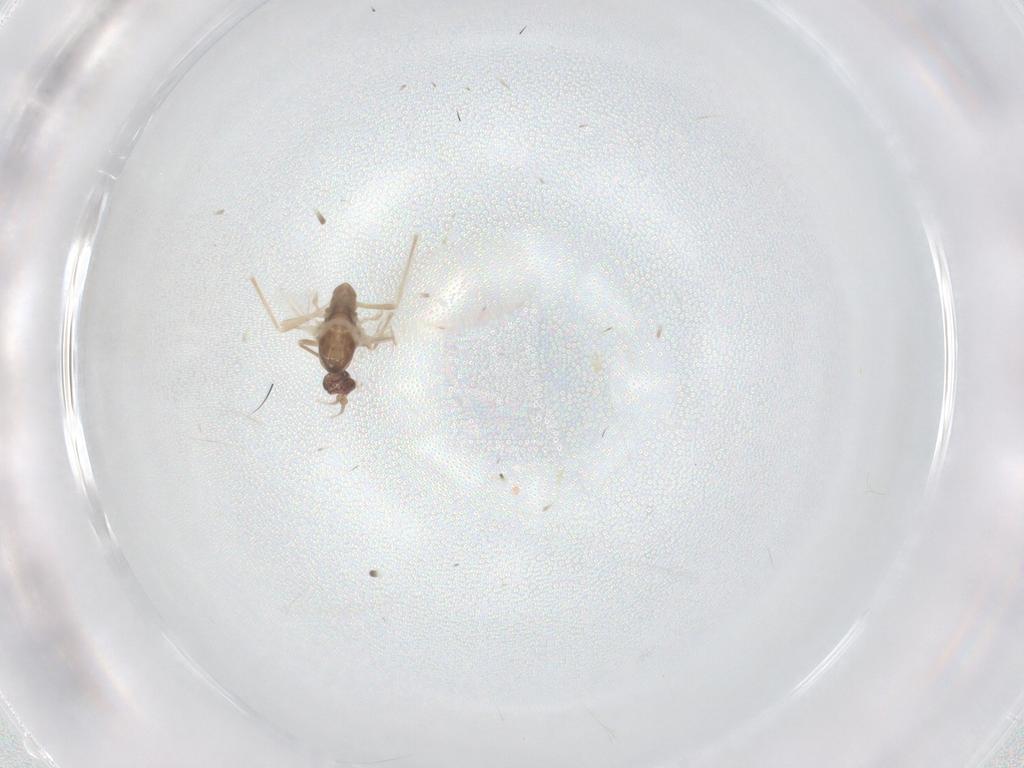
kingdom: Animalia
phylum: Arthropoda
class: Insecta
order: Diptera
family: Cecidomyiidae
